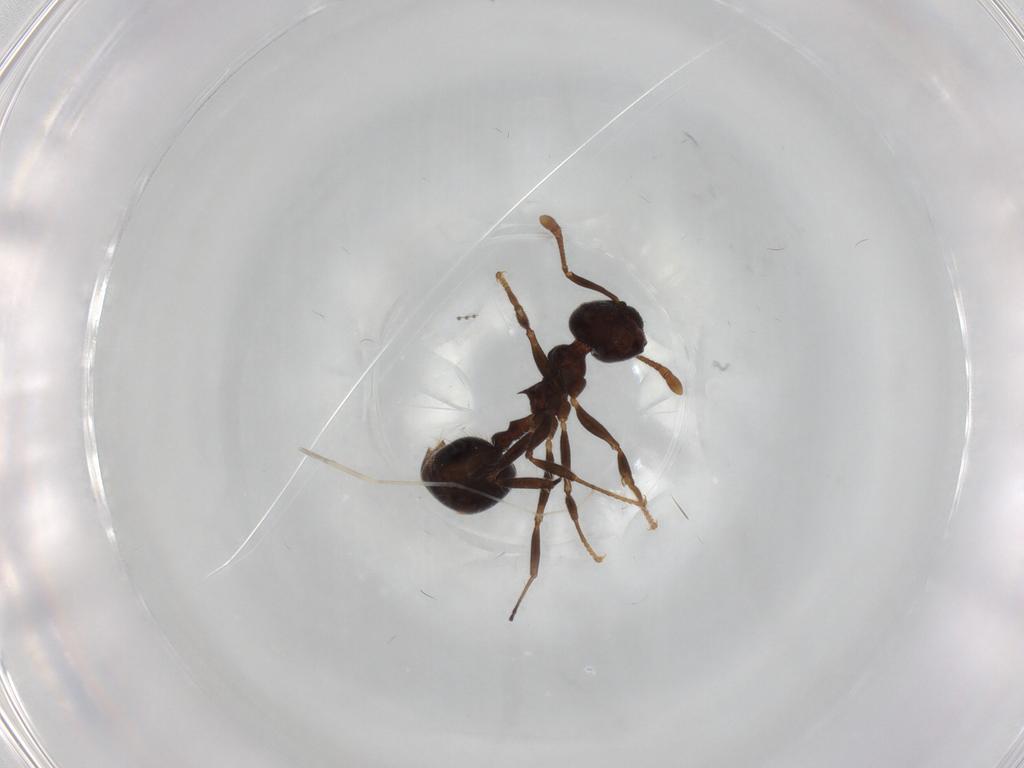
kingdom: Animalia
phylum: Arthropoda
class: Insecta
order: Hymenoptera
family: Formicidae
